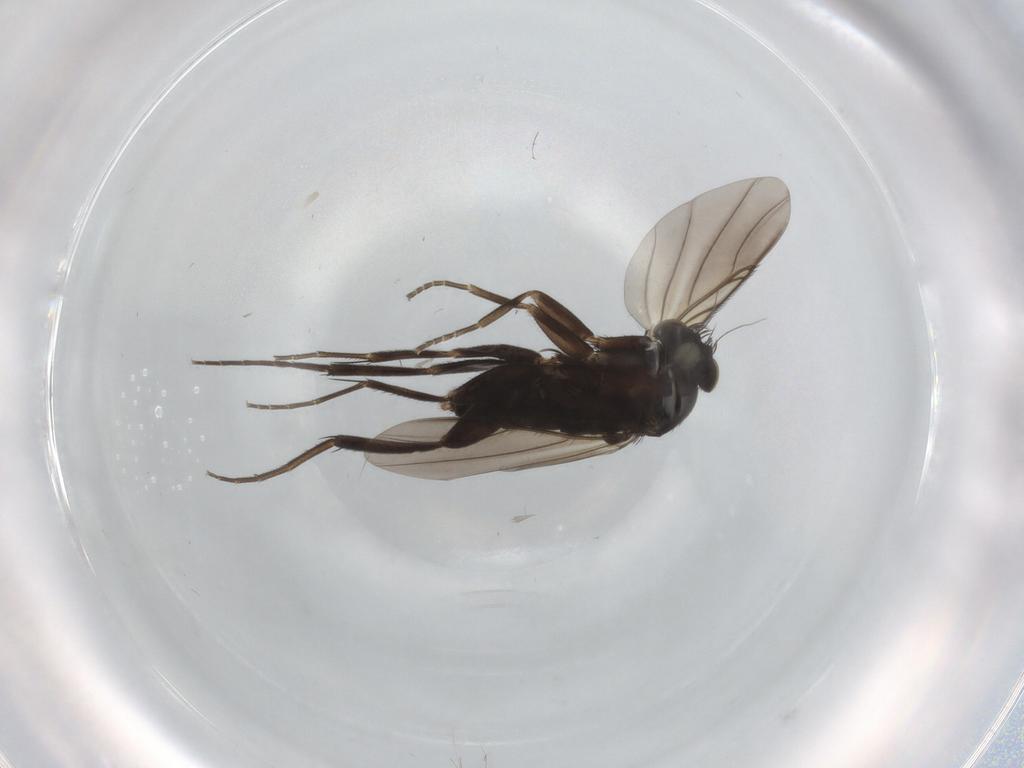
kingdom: Animalia
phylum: Arthropoda
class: Insecta
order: Diptera
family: Phoridae
